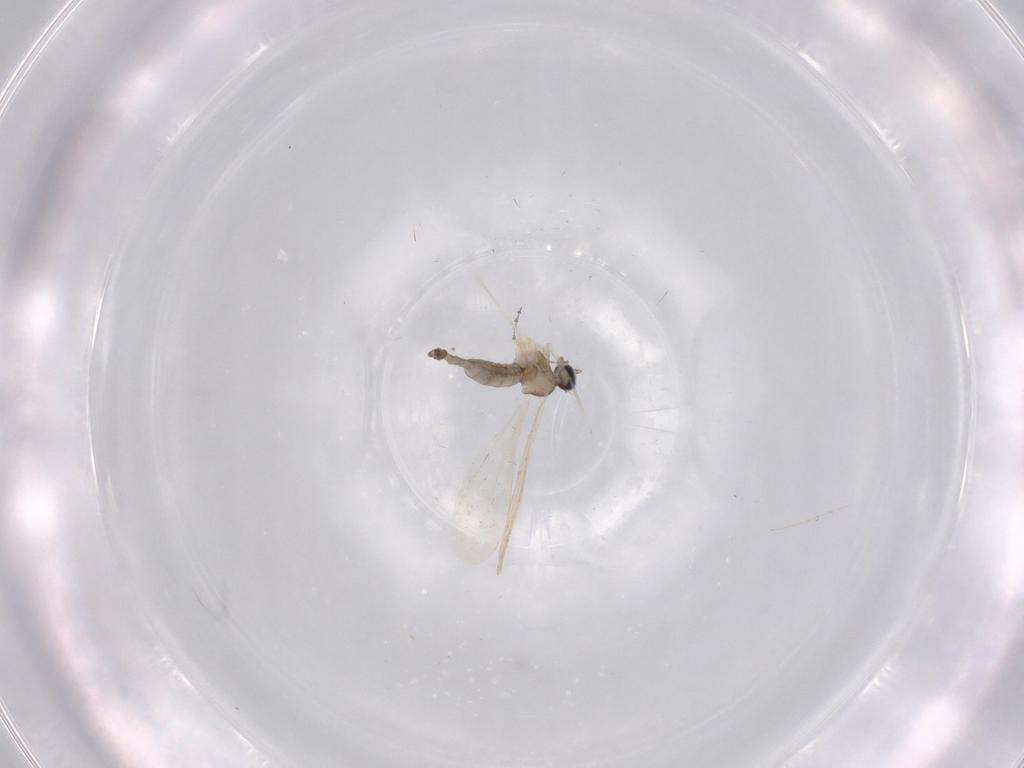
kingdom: Animalia
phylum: Arthropoda
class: Insecta
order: Diptera
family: Cecidomyiidae
